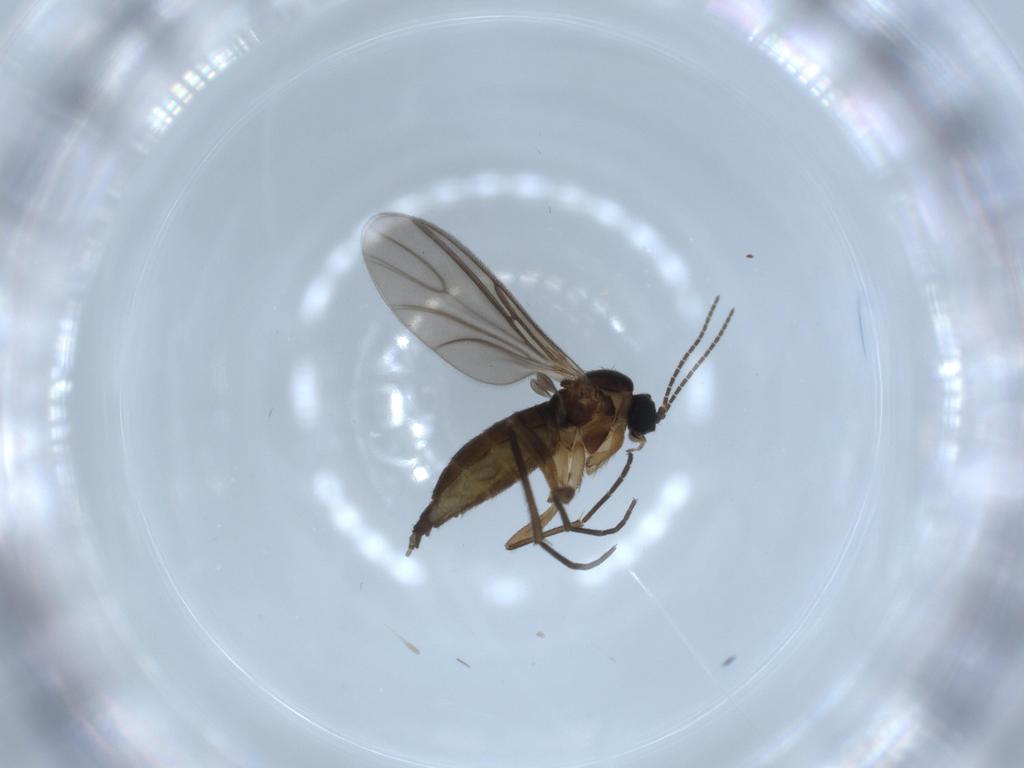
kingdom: Animalia
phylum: Arthropoda
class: Insecta
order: Diptera
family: Sciaridae
